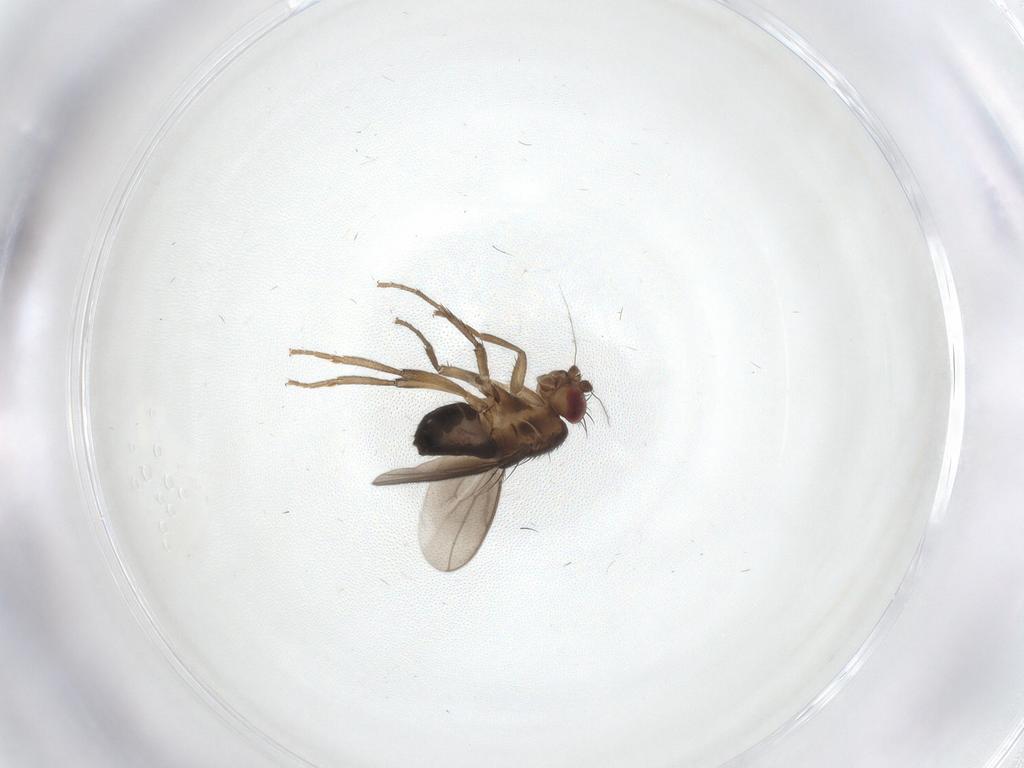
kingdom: Animalia
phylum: Arthropoda
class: Insecta
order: Diptera
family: Sphaeroceridae
